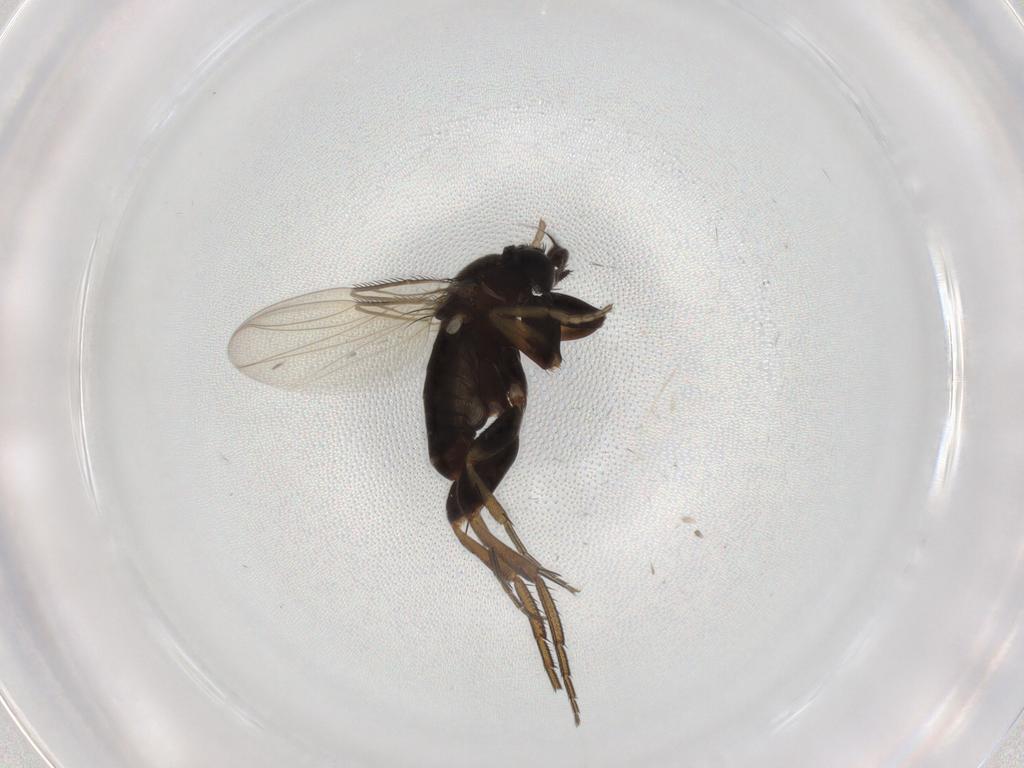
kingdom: Animalia
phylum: Arthropoda
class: Insecta
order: Diptera
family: Phoridae
